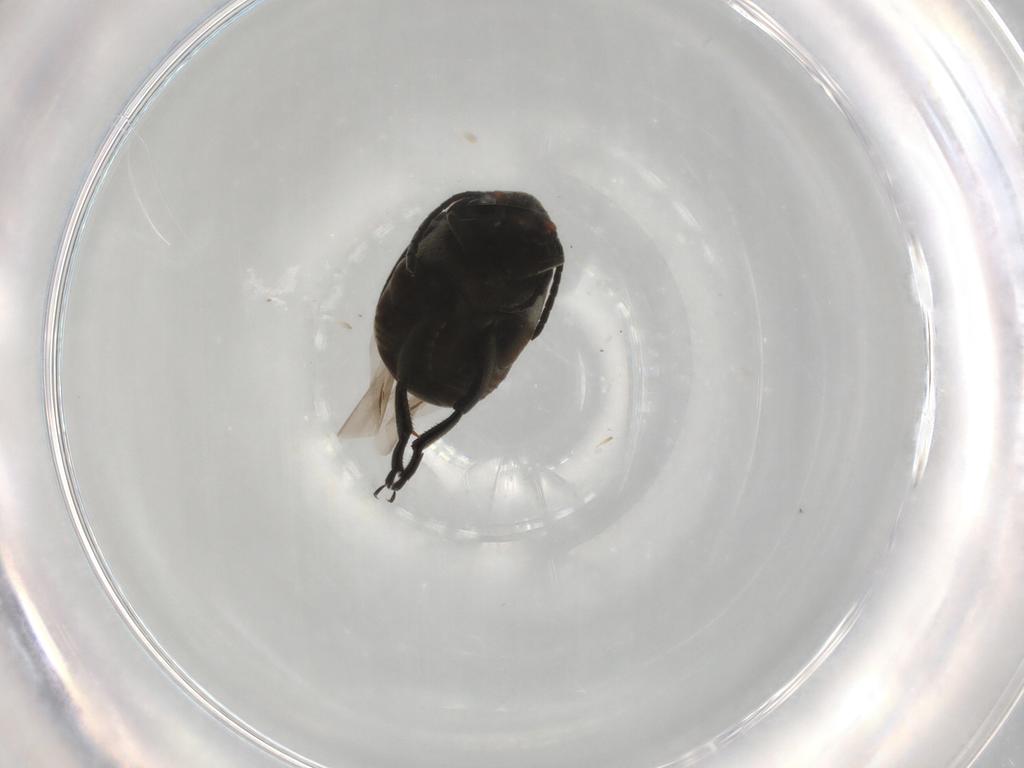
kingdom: Animalia
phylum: Arthropoda
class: Insecta
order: Coleoptera
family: Chrysomelidae
